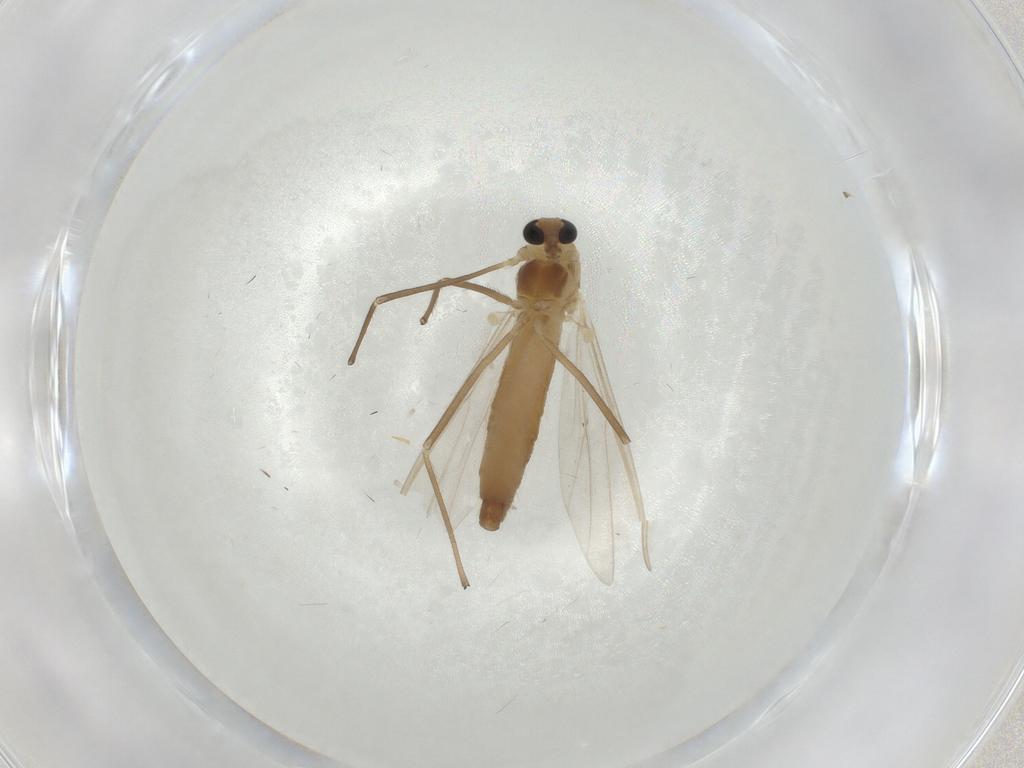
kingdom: Animalia
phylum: Arthropoda
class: Insecta
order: Diptera
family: Chironomidae
